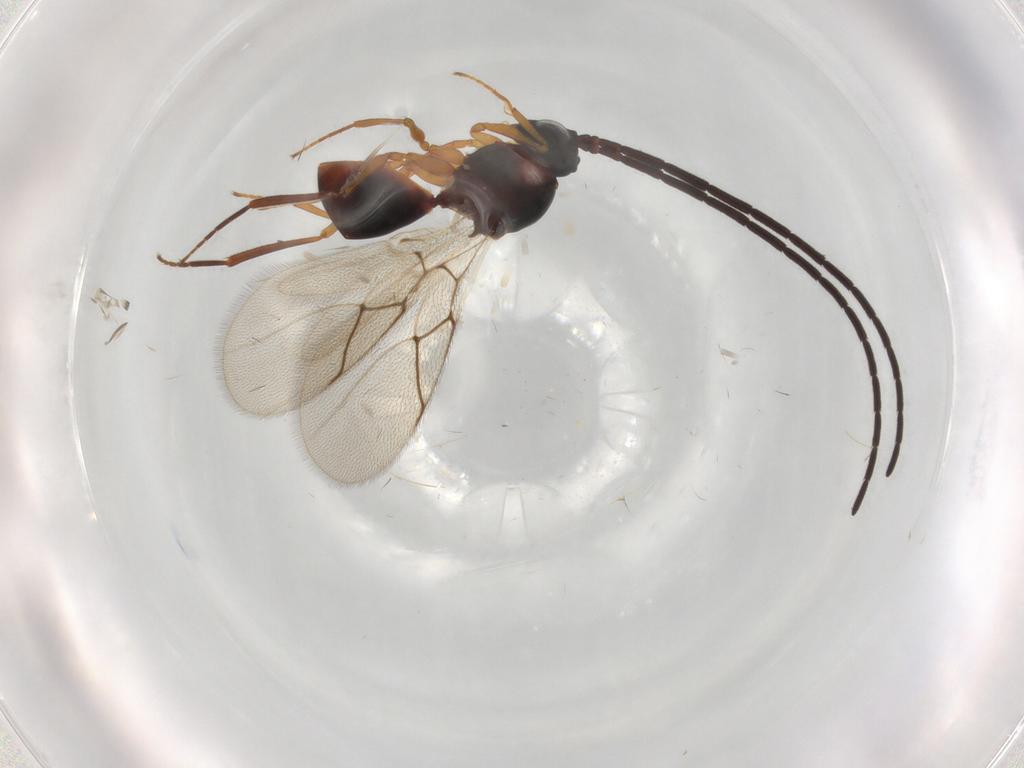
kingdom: Animalia
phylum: Arthropoda
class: Insecta
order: Hymenoptera
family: Figitidae
